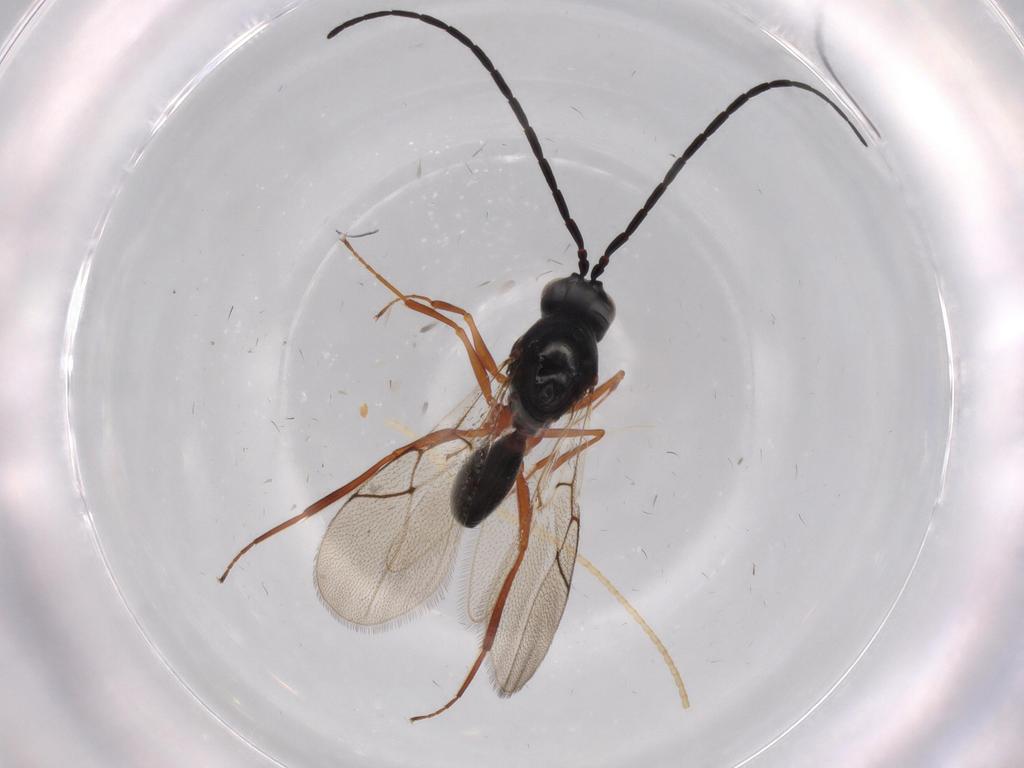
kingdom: Animalia
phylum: Arthropoda
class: Insecta
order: Hymenoptera
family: Figitidae
